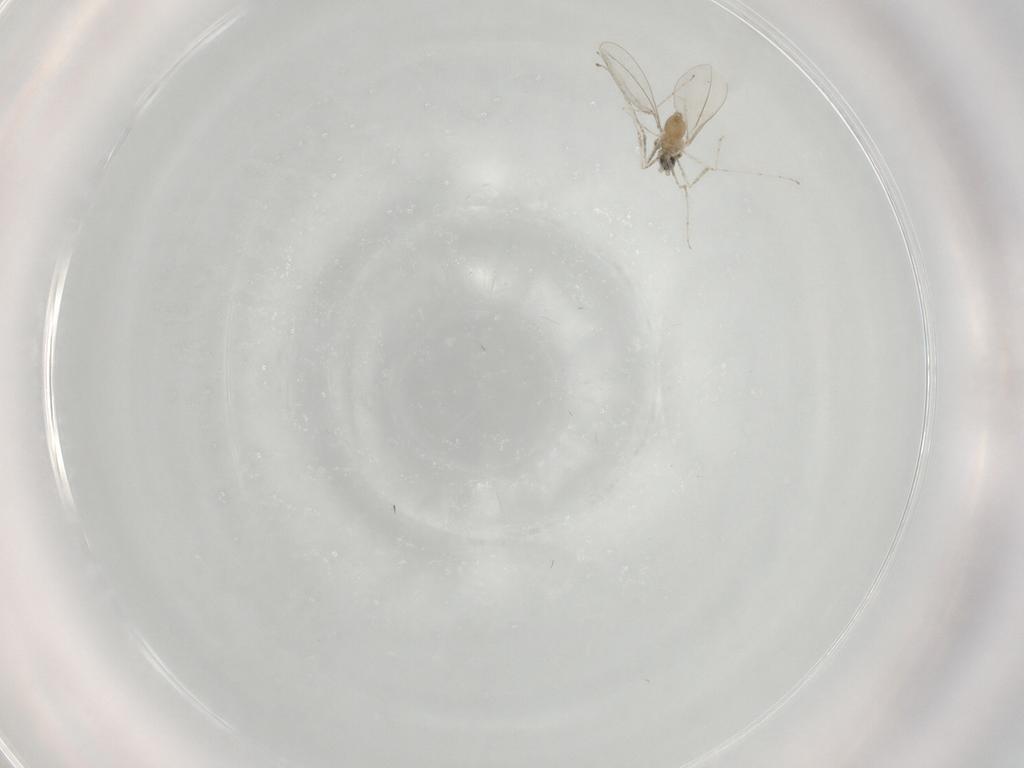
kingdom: Animalia
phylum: Arthropoda
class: Insecta
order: Diptera
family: Cecidomyiidae
